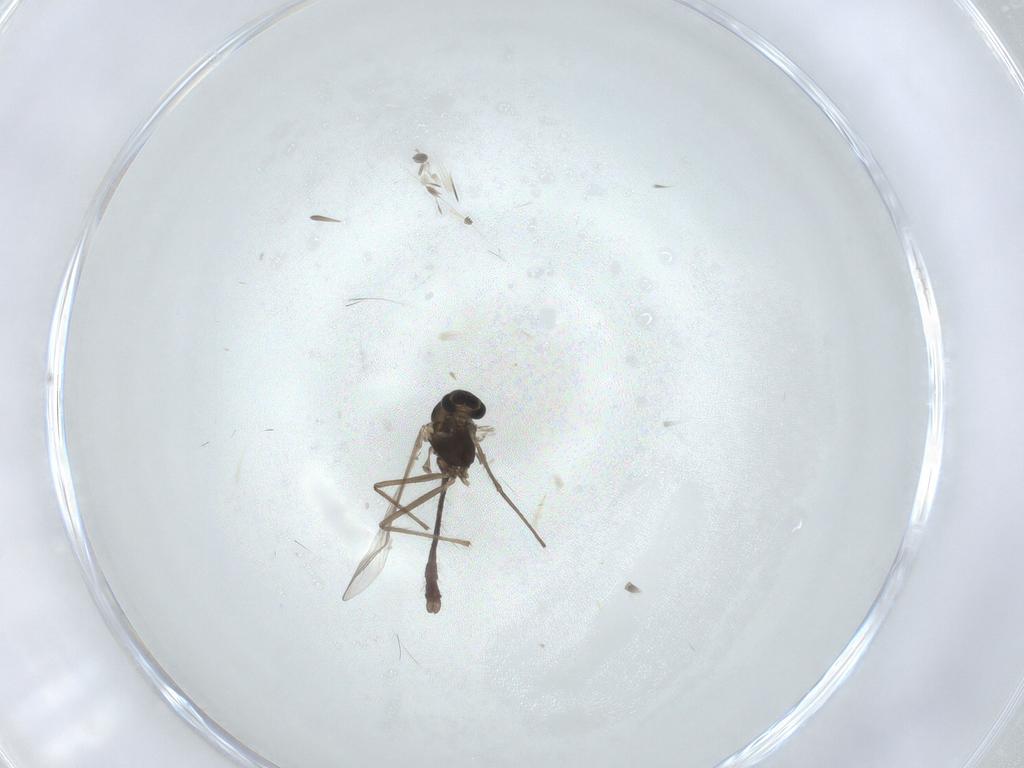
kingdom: Animalia
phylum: Arthropoda
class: Insecta
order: Diptera
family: Chironomidae
